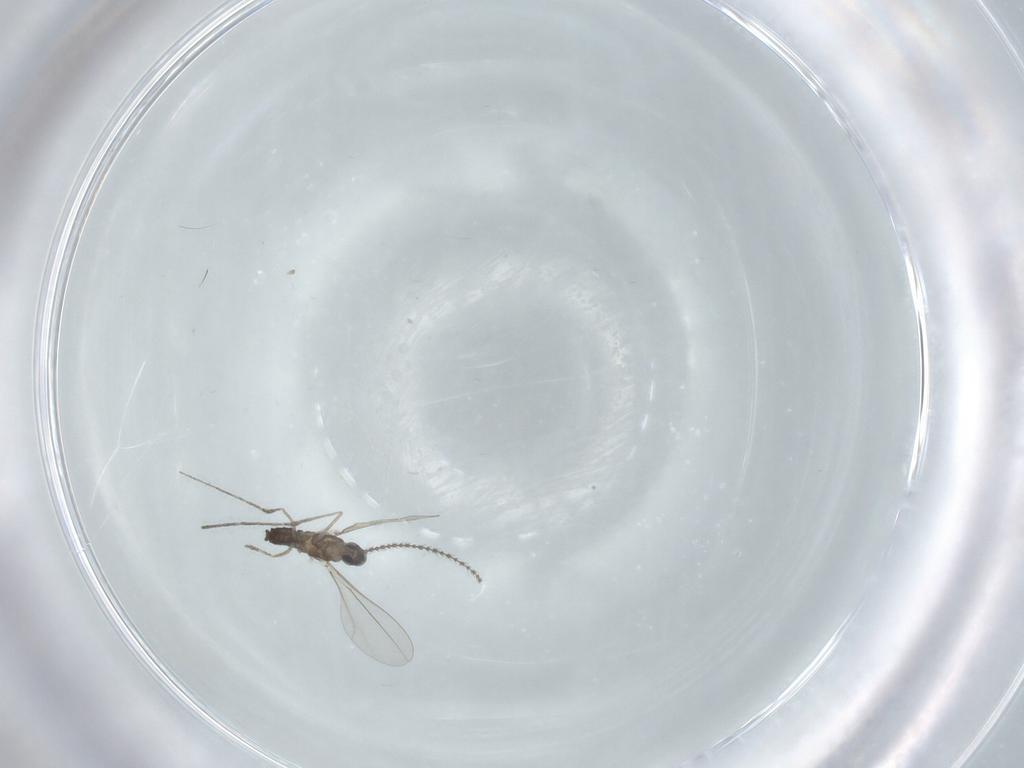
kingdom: Animalia
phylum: Arthropoda
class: Insecta
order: Diptera
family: Cecidomyiidae
